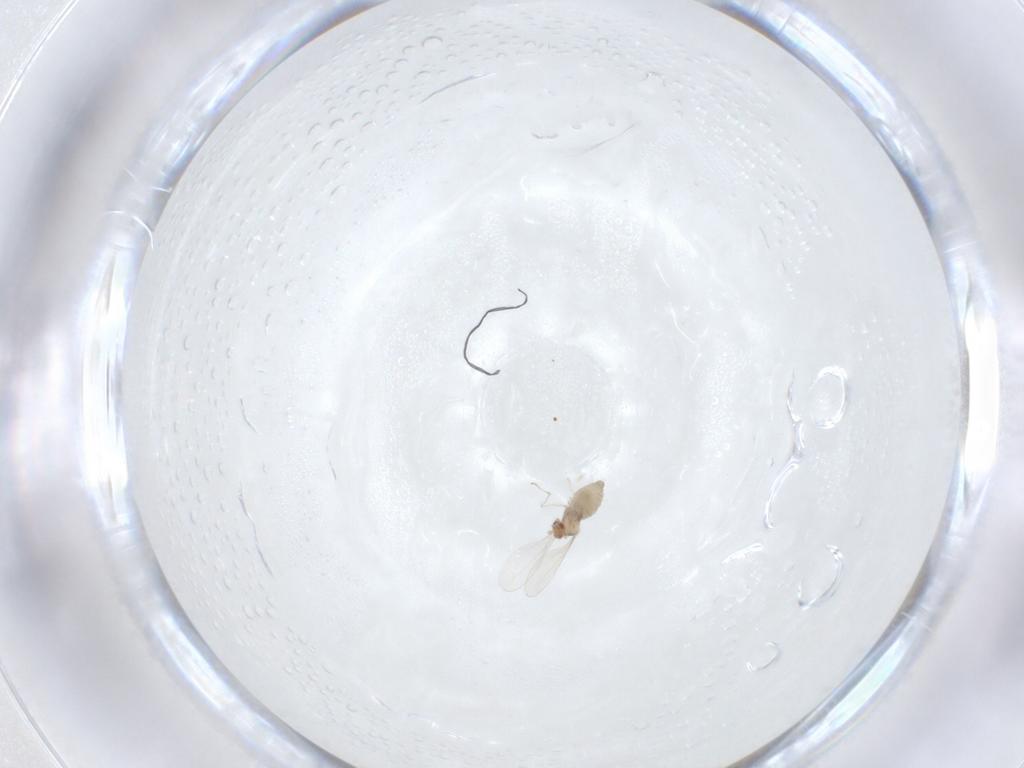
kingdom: Animalia
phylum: Arthropoda
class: Insecta
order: Diptera
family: Cecidomyiidae
